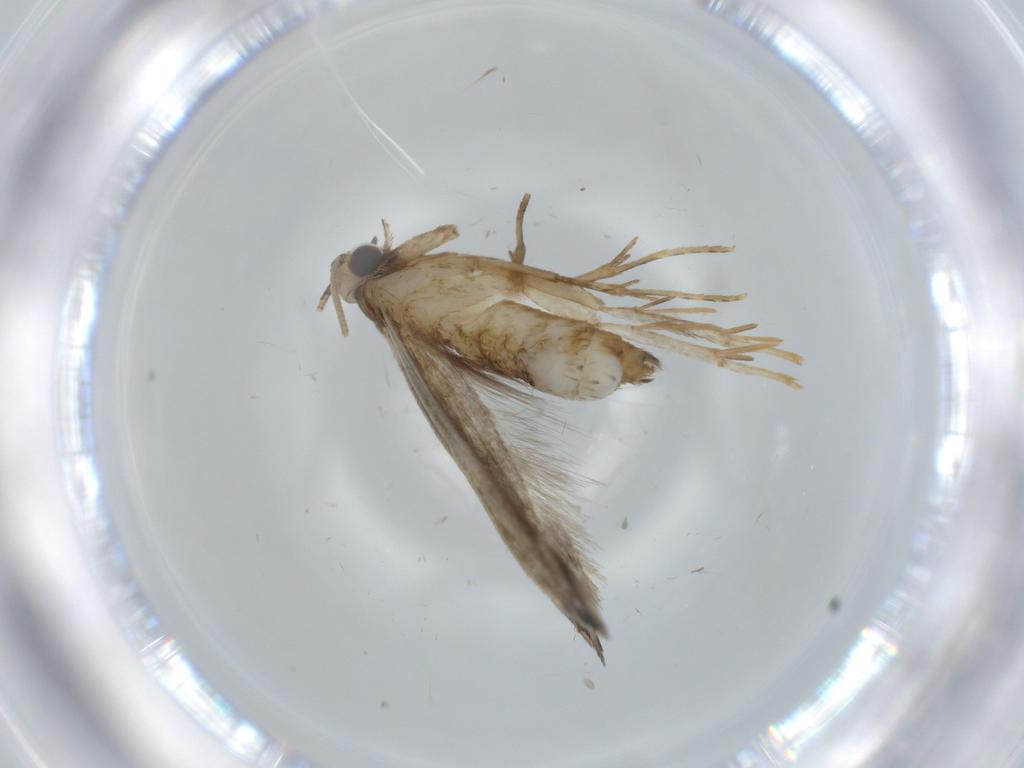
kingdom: Animalia
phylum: Arthropoda
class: Insecta
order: Lepidoptera
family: Tineidae
